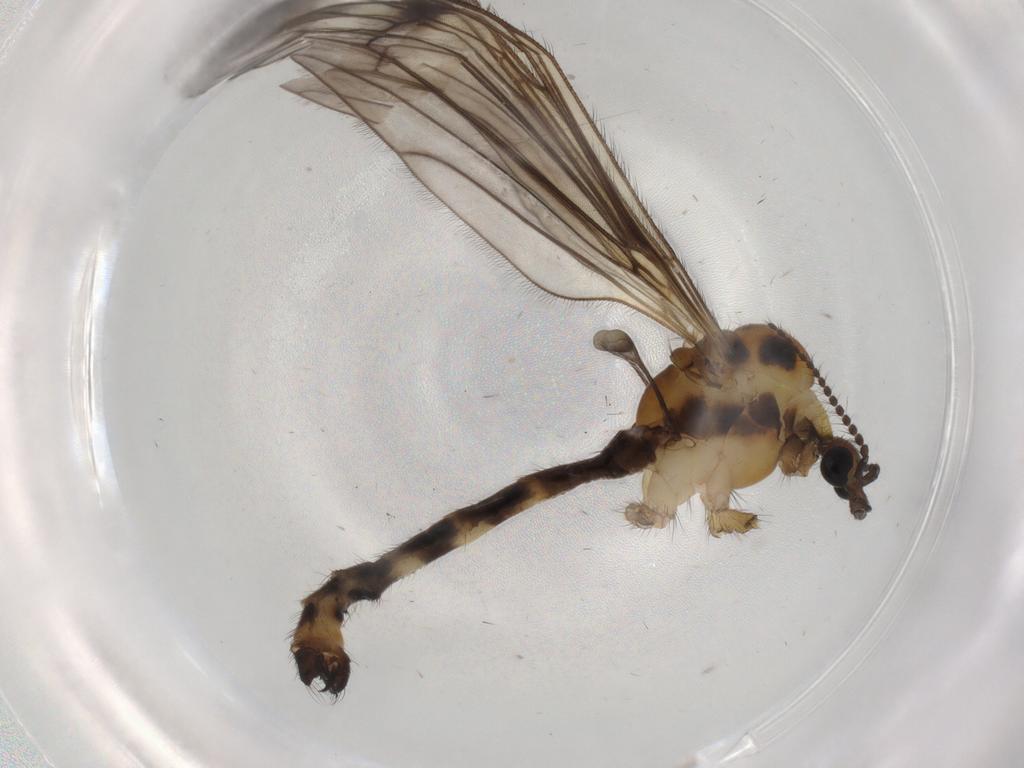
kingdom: Animalia
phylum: Arthropoda
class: Insecta
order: Diptera
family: Limoniidae
